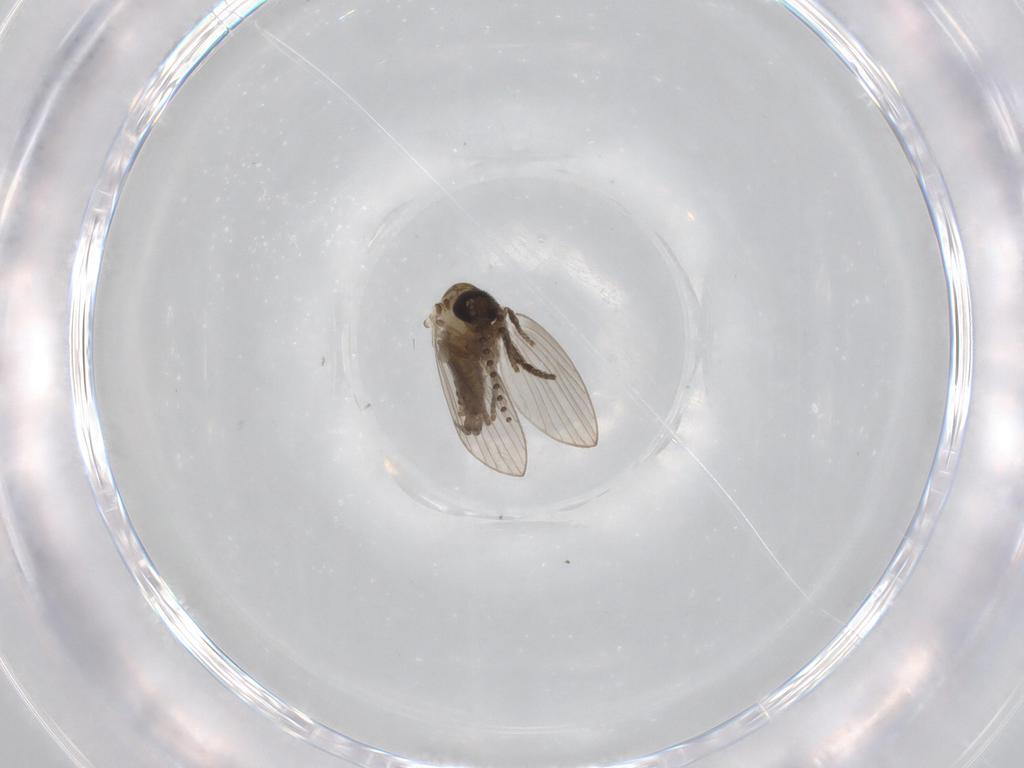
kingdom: Animalia
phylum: Arthropoda
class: Insecta
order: Diptera
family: Psychodidae
